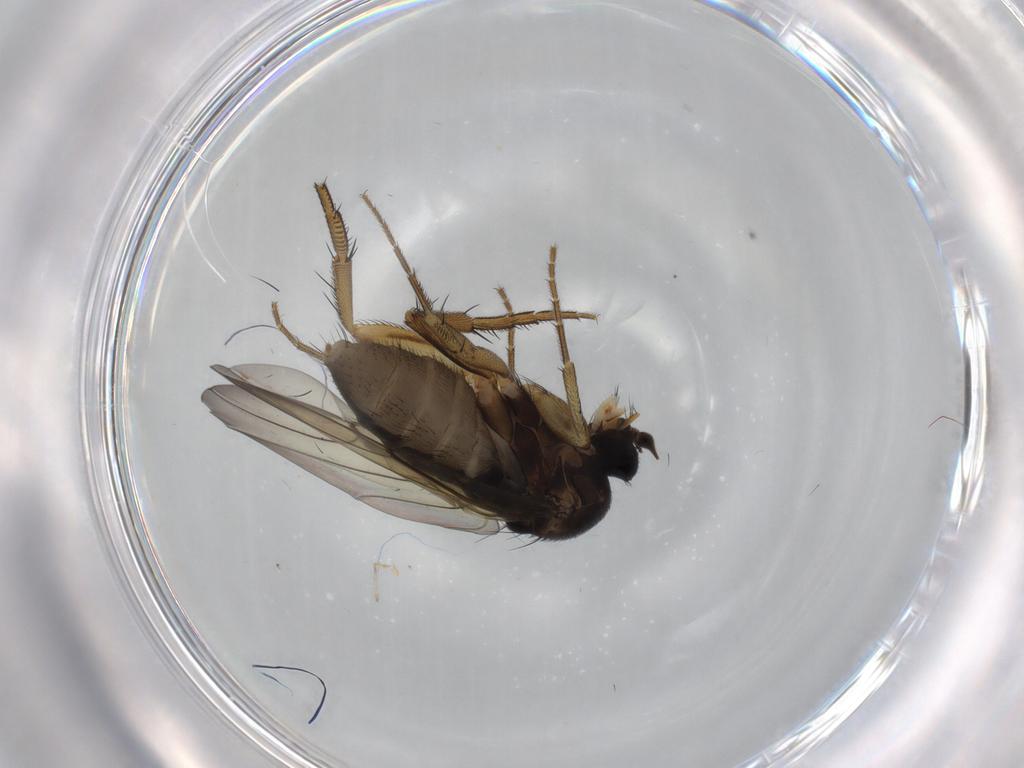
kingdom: Animalia
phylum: Arthropoda
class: Insecta
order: Diptera
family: Phoridae
